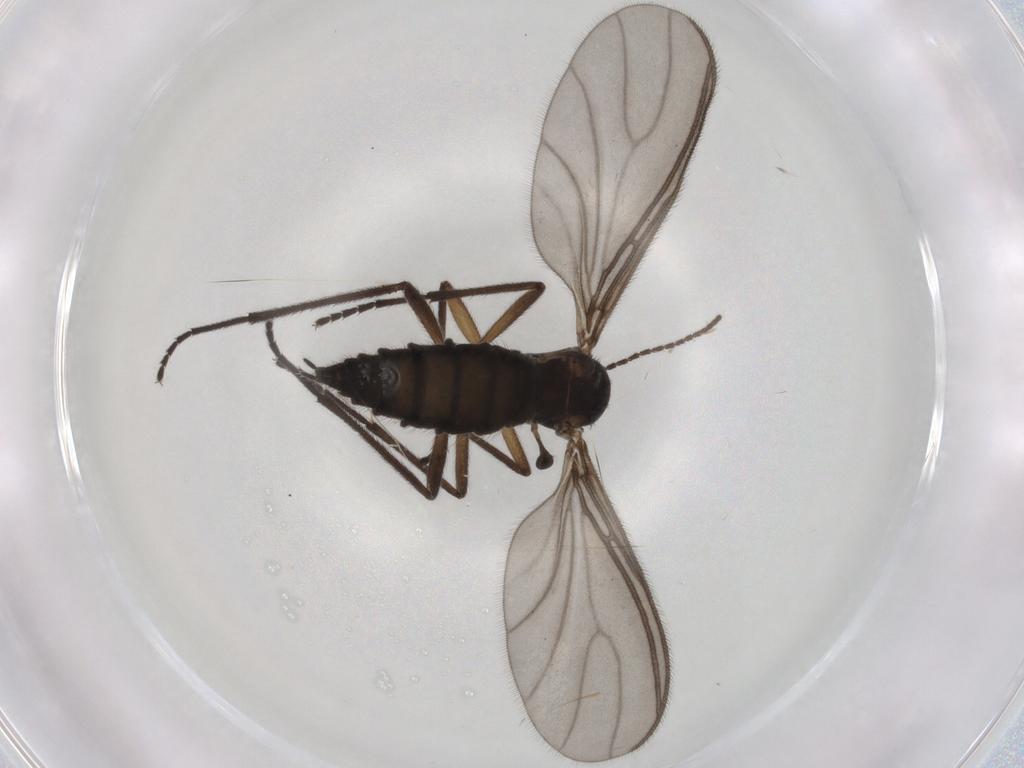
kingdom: Animalia
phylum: Arthropoda
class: Insecta
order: Diptera
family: Sciaridae
